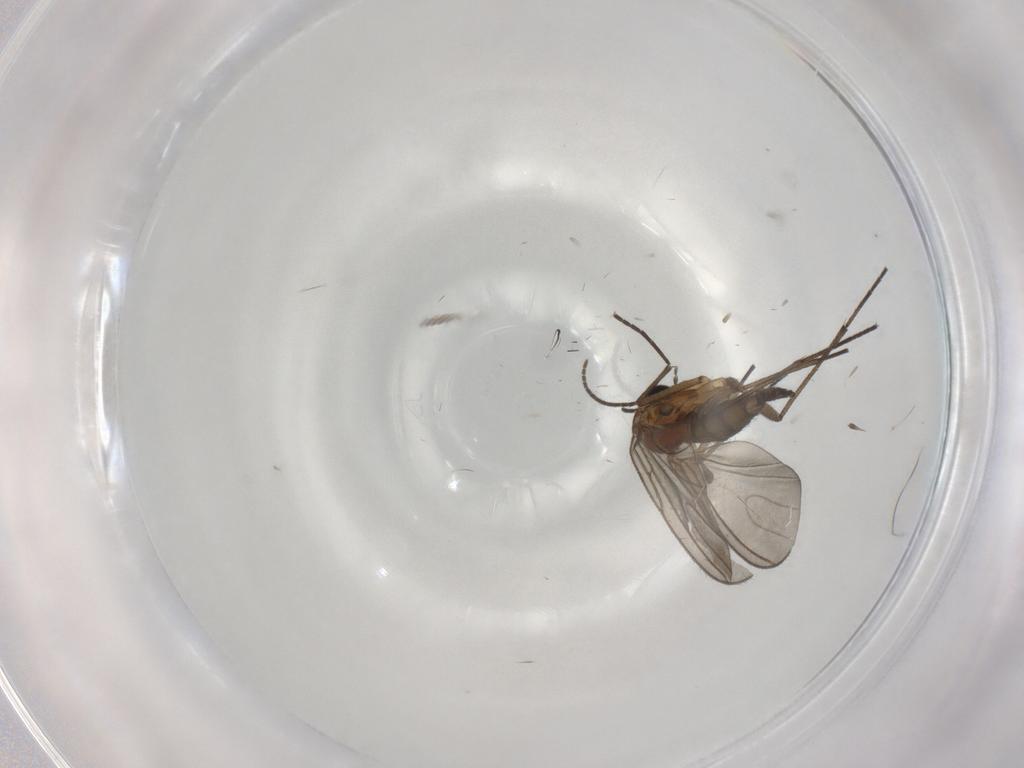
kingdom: Animalia
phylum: Arthropoda
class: Insecta
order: Diptera
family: Sciaridae
